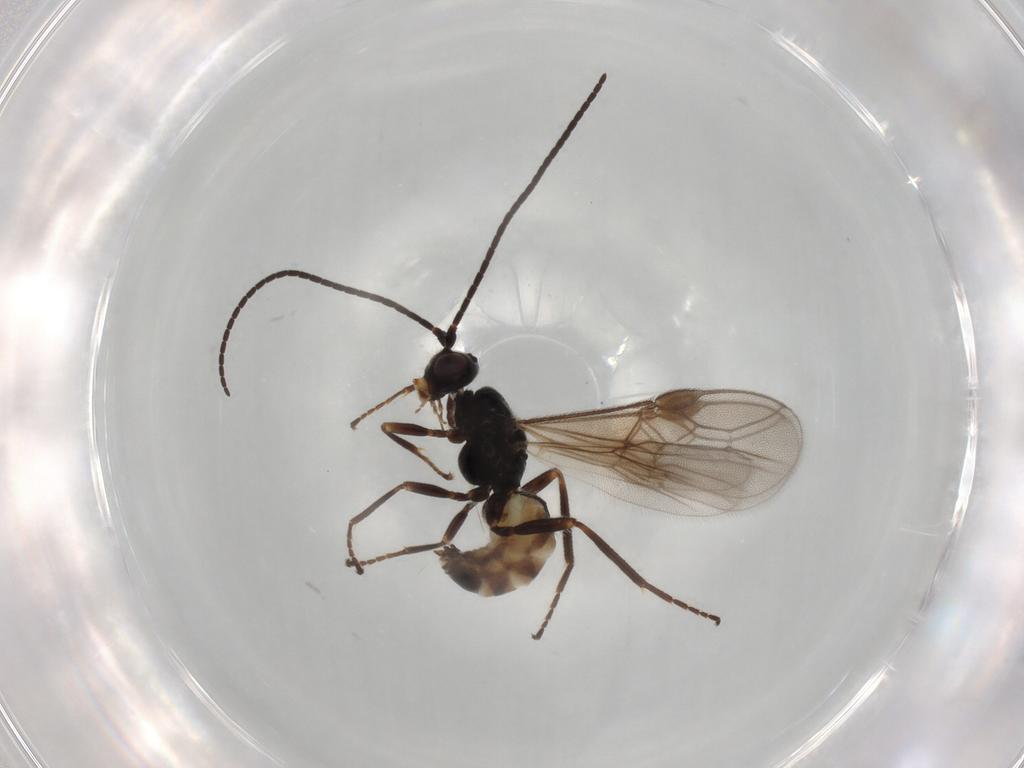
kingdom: Animalia
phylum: Arthropoda
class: Insecta
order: Hymenoptera
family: Braconidae
